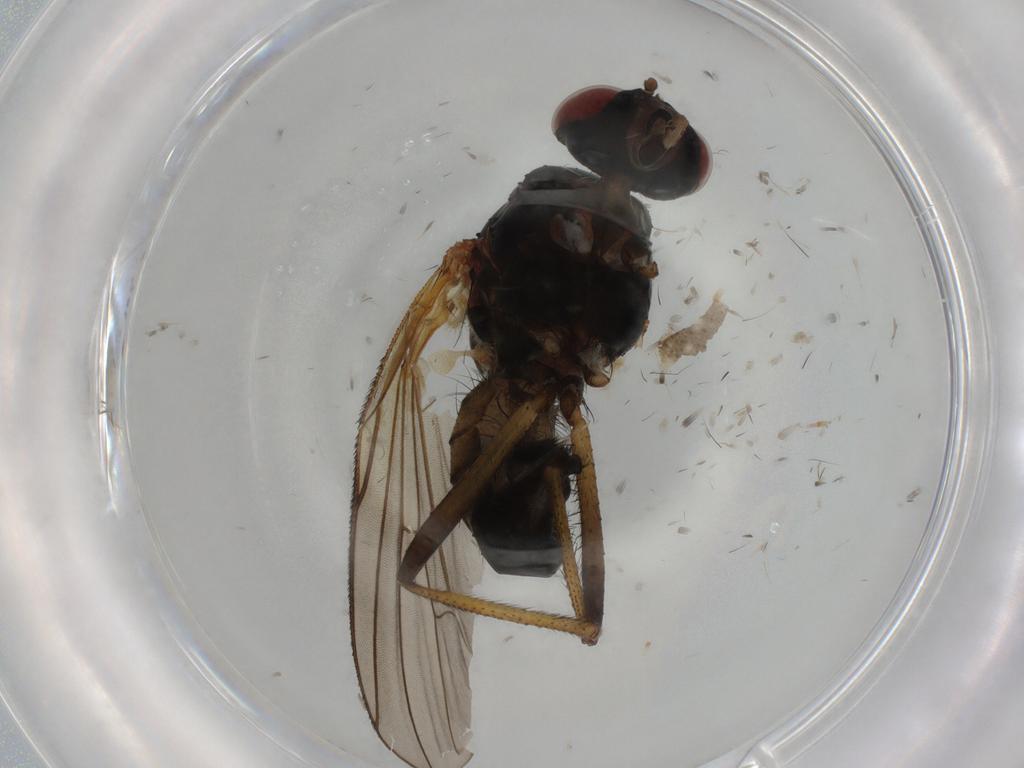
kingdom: Animalia
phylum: Arthropoda
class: Insecta
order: Diptera
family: Anthomyiidae
